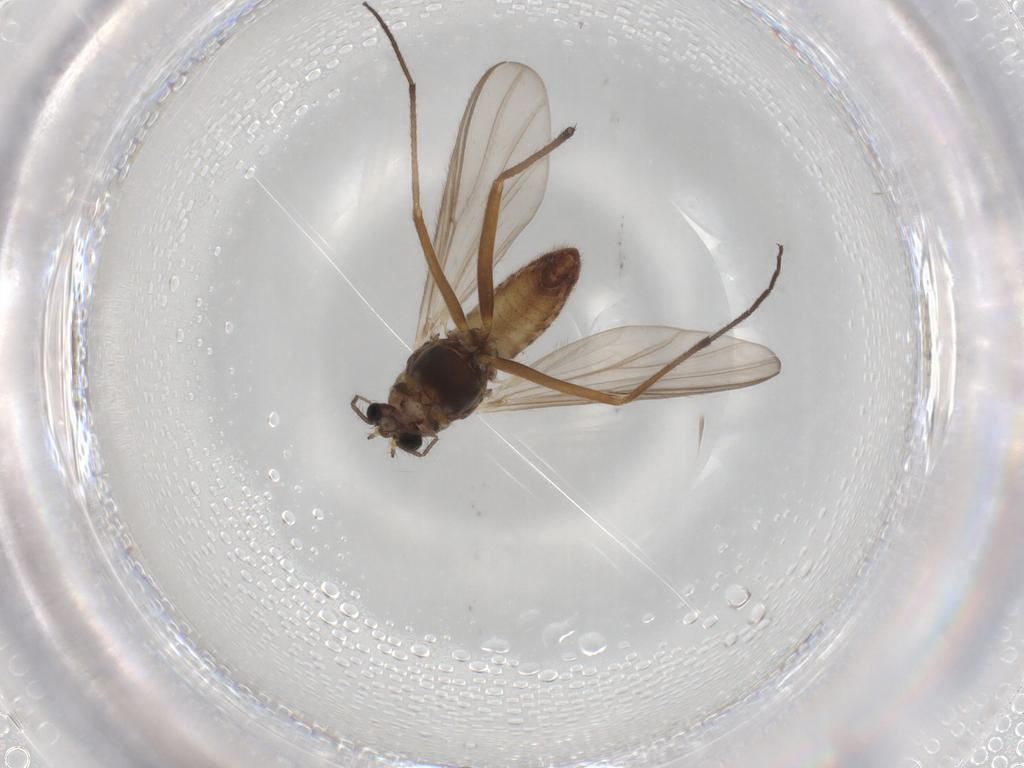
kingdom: Animalia
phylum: Arthropoda
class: Insecta
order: Diptera
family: Chironomidae
